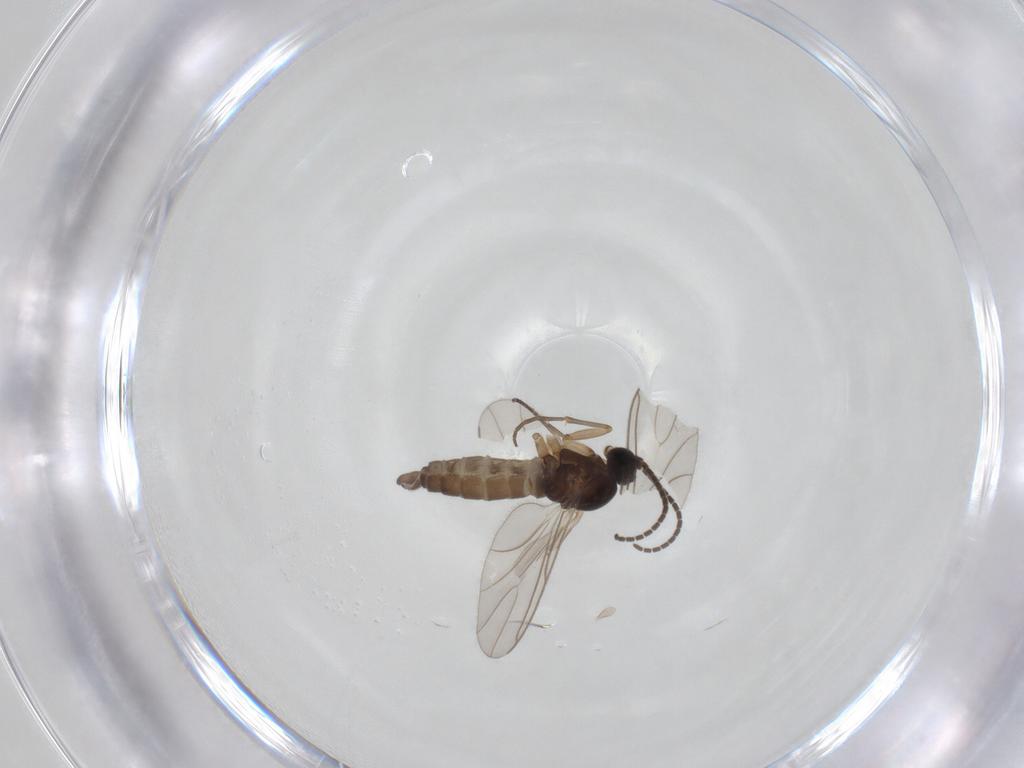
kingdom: Animalia
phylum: Arthropoda
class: Insecta
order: Diptera
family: Sciaridae
